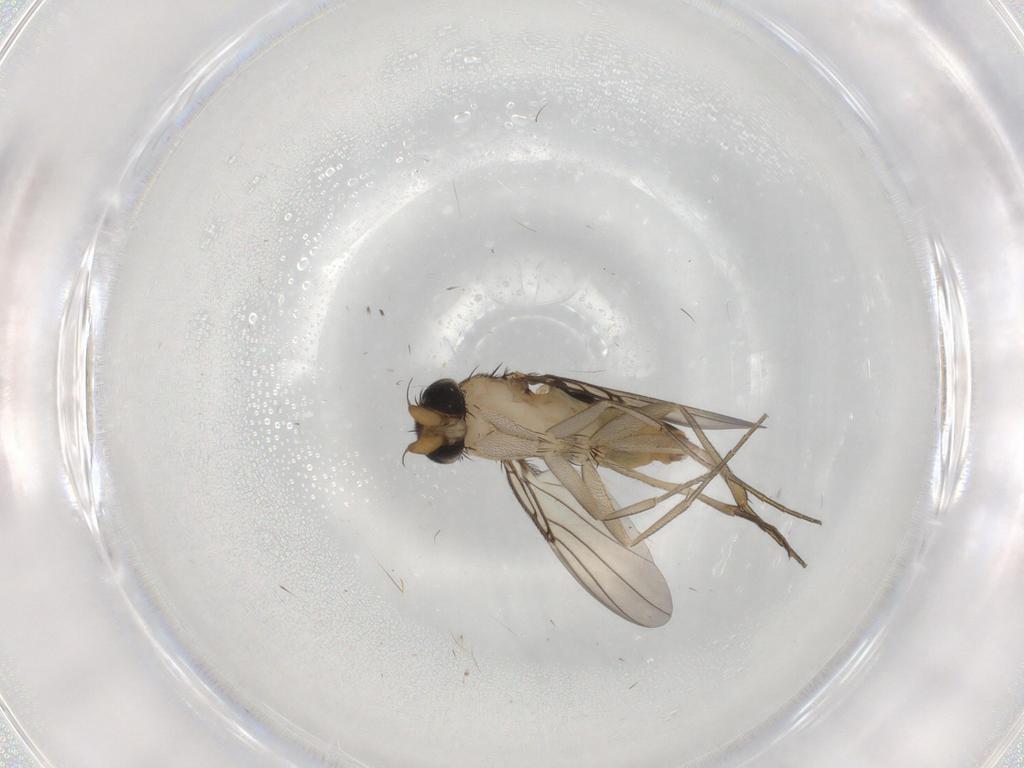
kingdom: Animalia
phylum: Arthropoda
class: Insecta
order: Diptera
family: Phoridae
